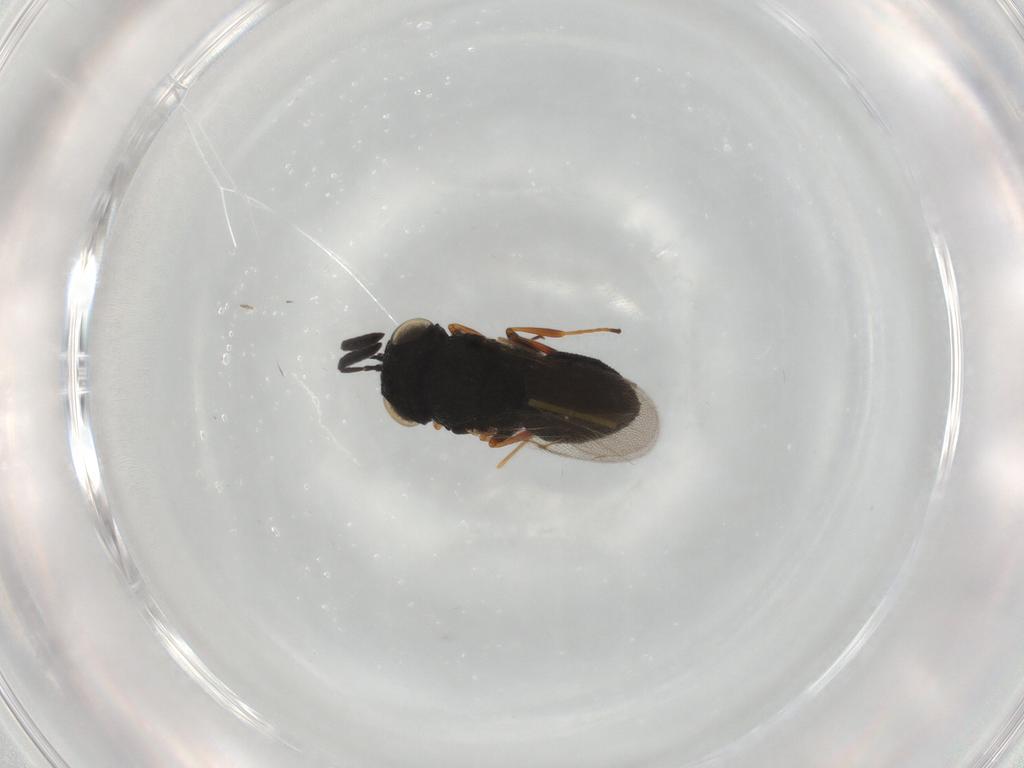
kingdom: Animalia
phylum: Arthropoda
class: Insecta
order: Hymenoptera
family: Scelionidae
